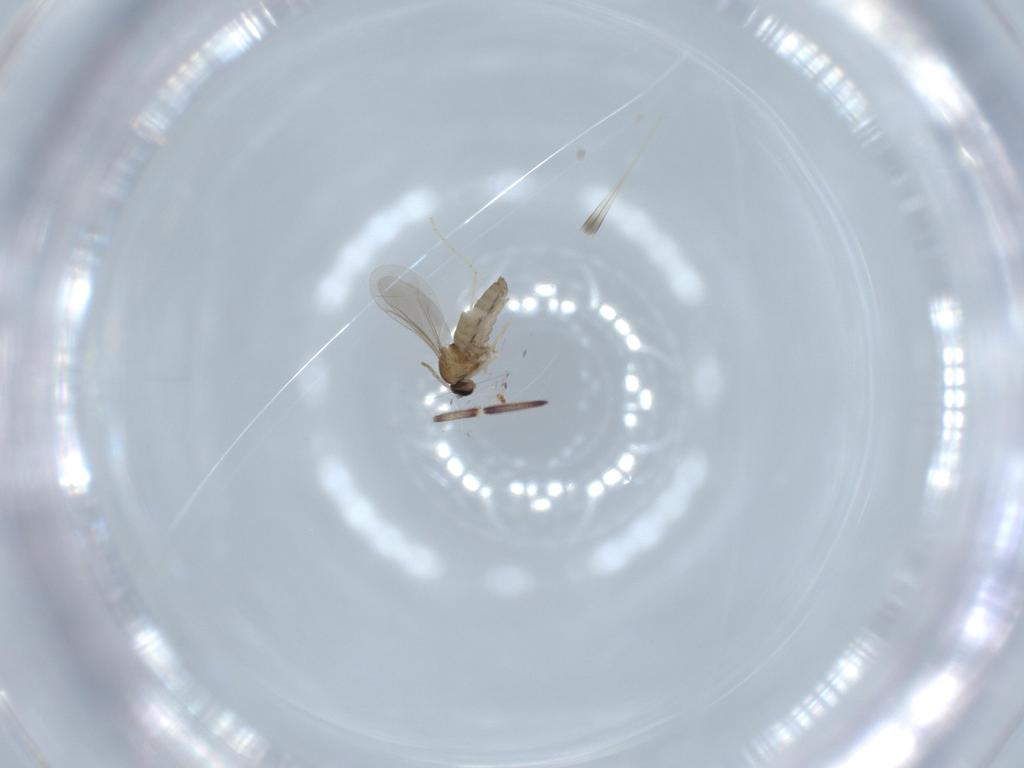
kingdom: Animalia
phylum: Arthropoda
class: Insecta
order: Diptera
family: Cecidomyiidae
